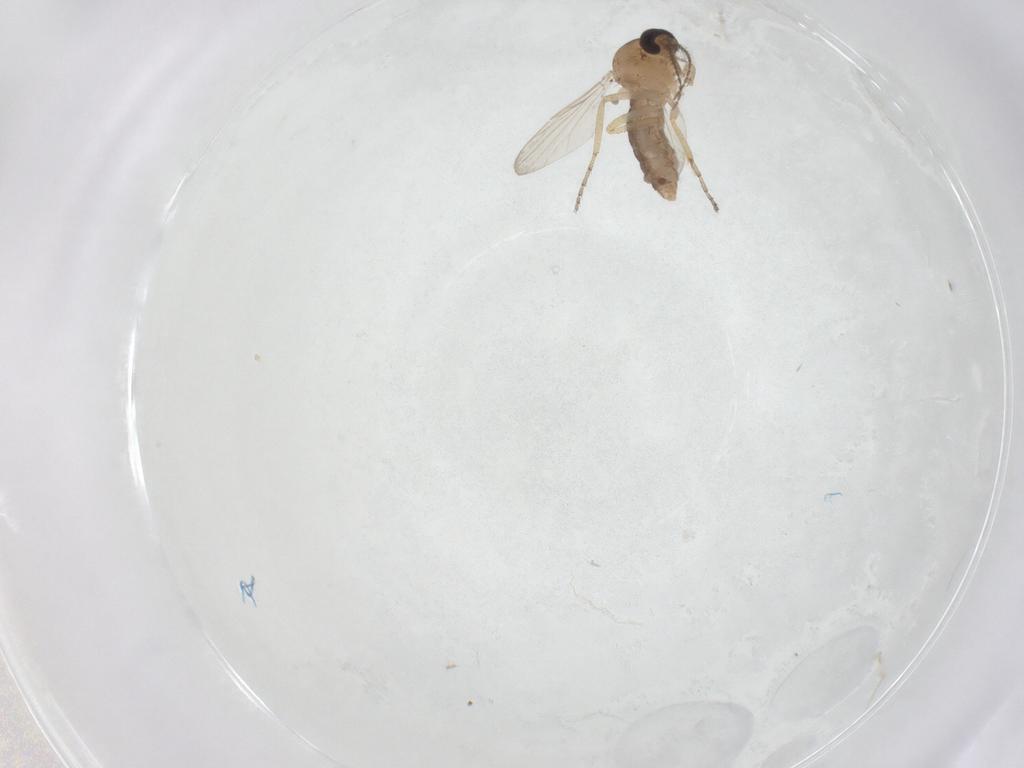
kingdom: Animalia
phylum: Arthropoda
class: Insecta
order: Diptera
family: Ceratopogonidae
